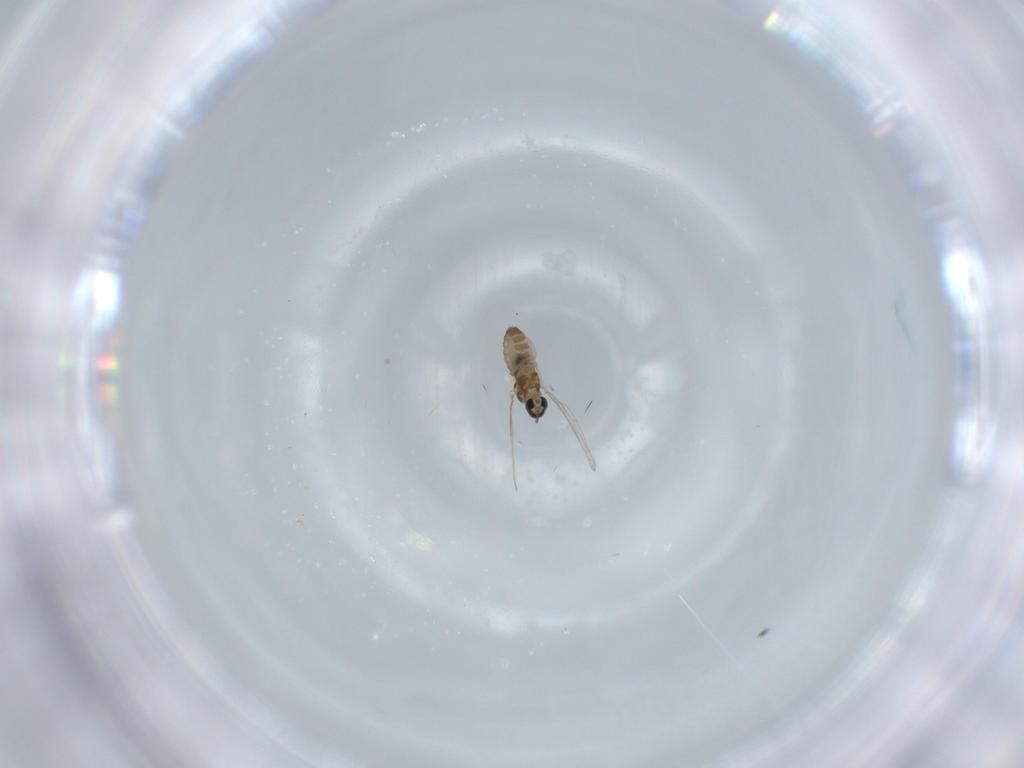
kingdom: Animalia
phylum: Arthropoda
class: Insecta
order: Diptera
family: Cecidomyiidae
